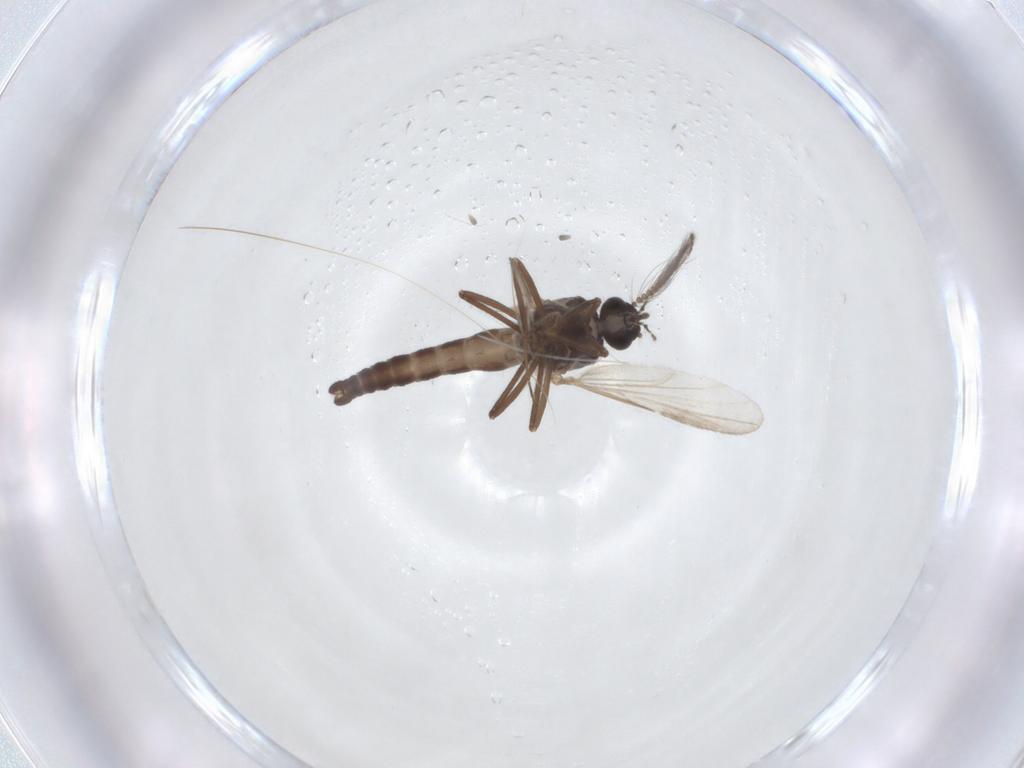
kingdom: Animalia
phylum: Arthropoda
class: Insecta
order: Diptera
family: Ceratopogonidae
